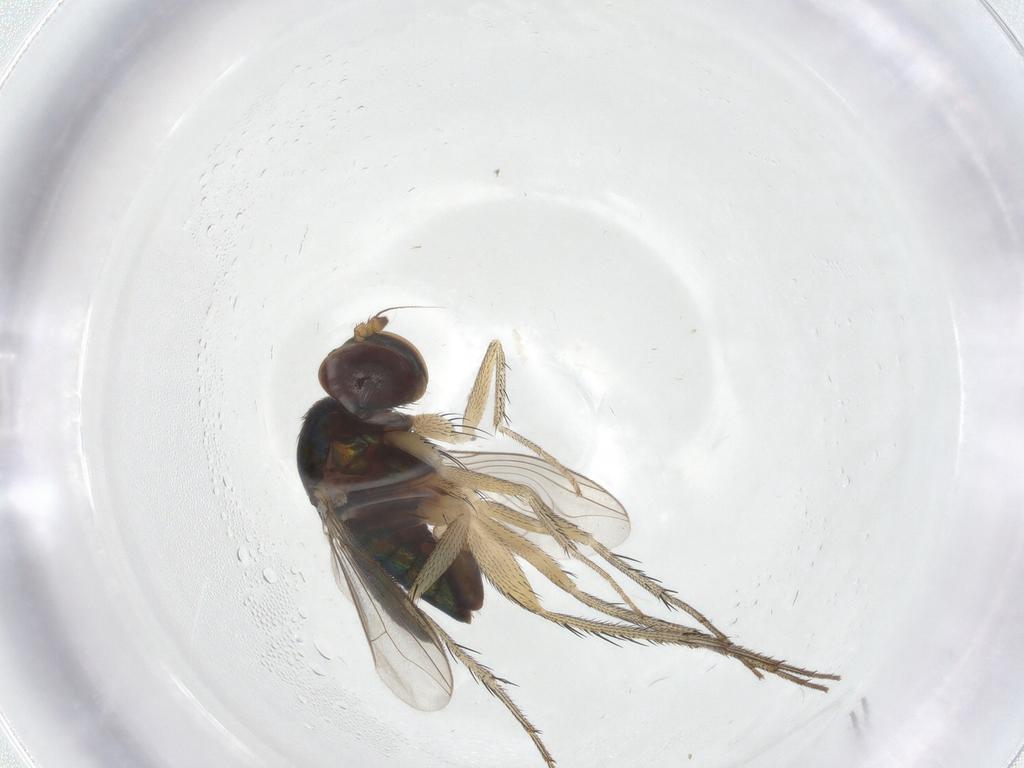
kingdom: Animalia
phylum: Arthropoda
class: Insecta
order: Diptera
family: Dolichopodidae
